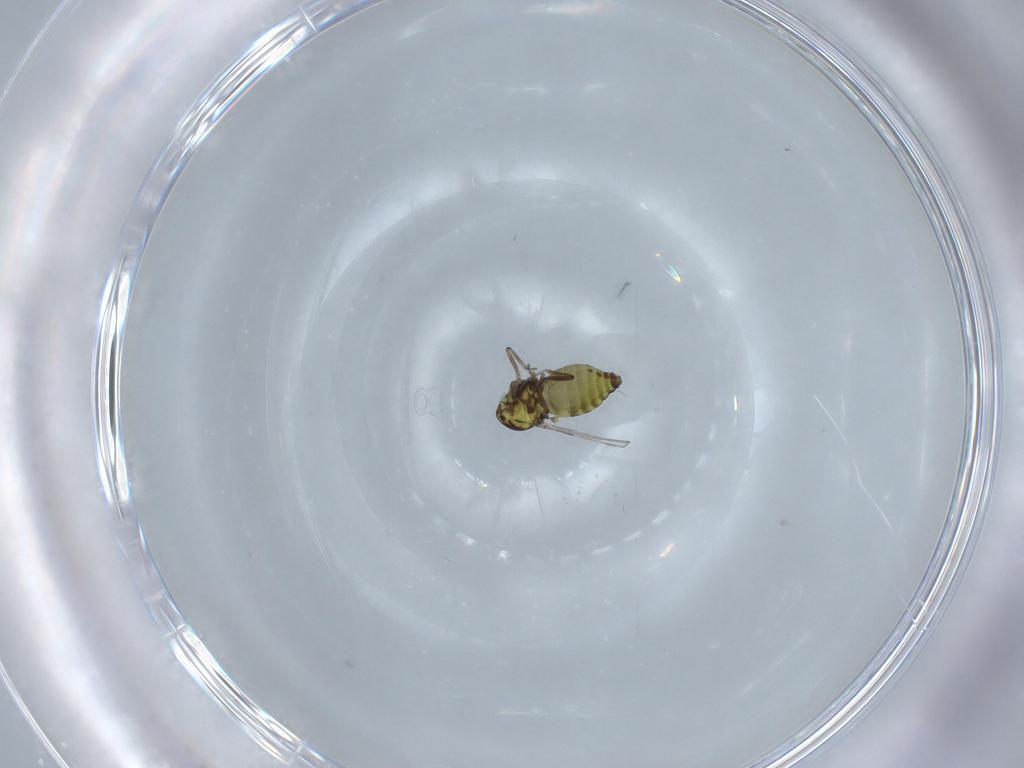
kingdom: Animalia
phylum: Arthropoda
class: Insecta
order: Diptera
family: Ceratopogonidae
